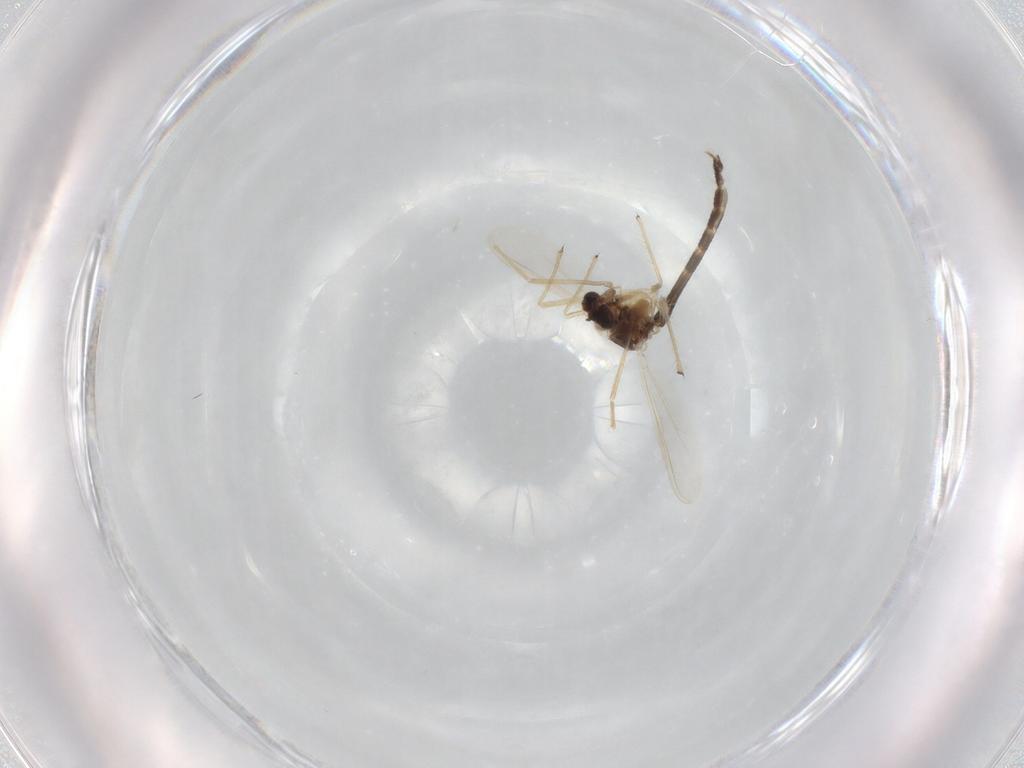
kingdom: Animalia
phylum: Arthropoda
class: Insecta
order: Diptera
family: Chironomidae
